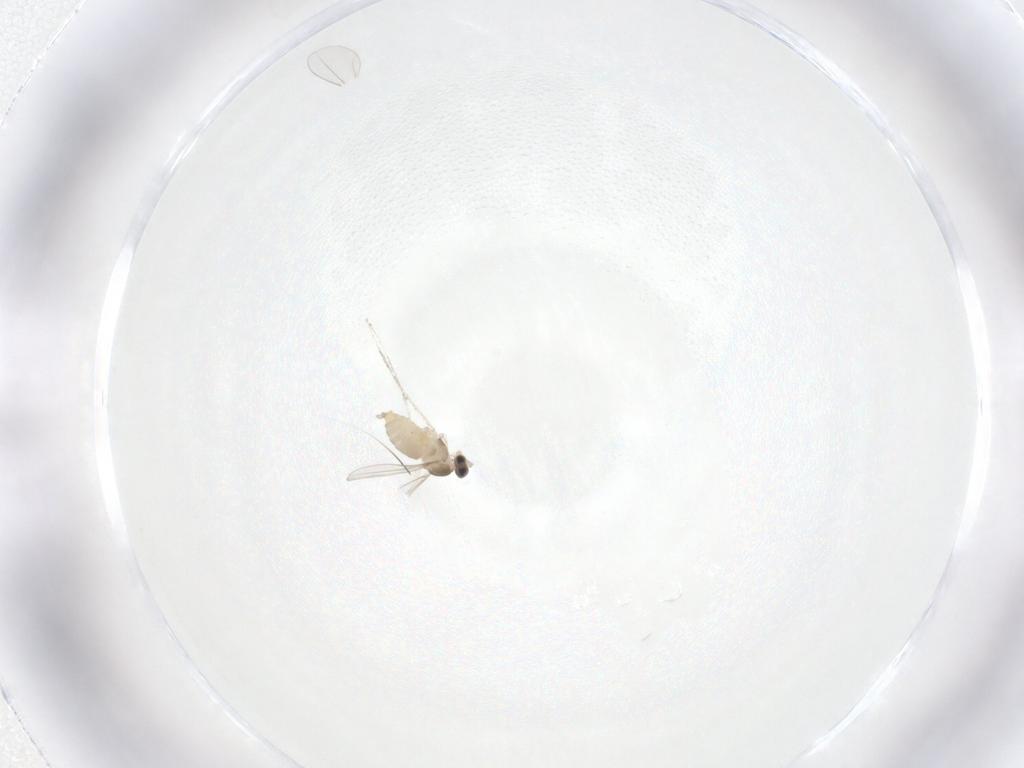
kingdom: Animalia
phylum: Arthropoda
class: Insecta
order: Diptera
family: Cecidomyiidae
